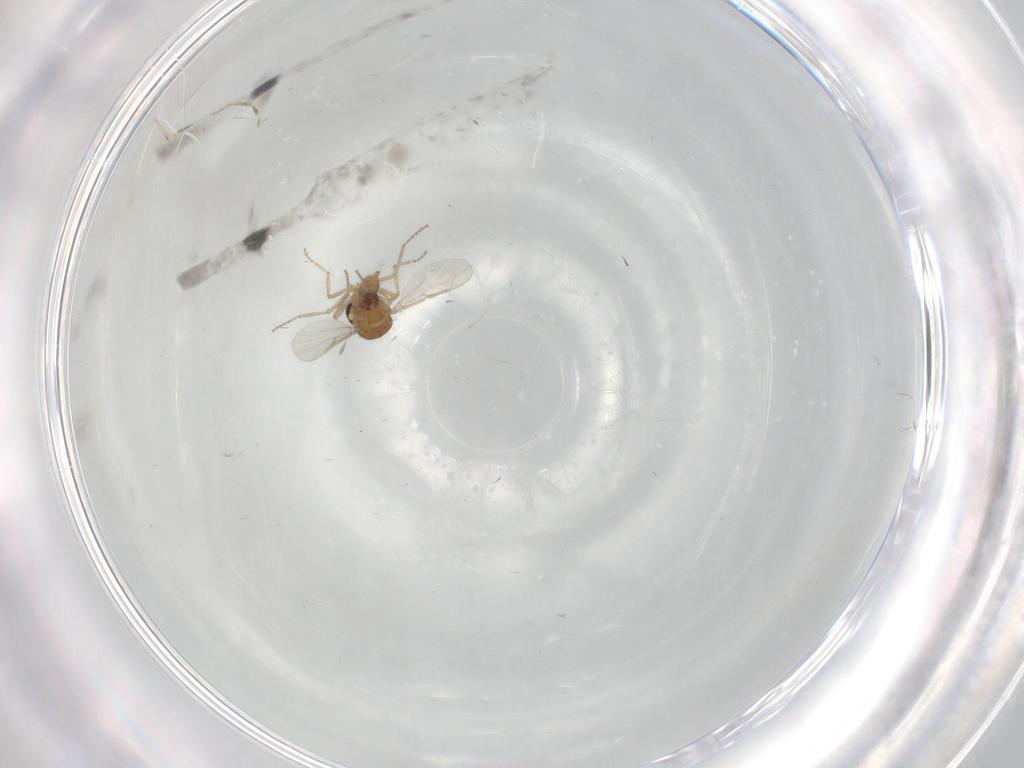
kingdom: Animalia
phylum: Arthropoda
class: Insecta
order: Diptera
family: Ceratopogonidae
